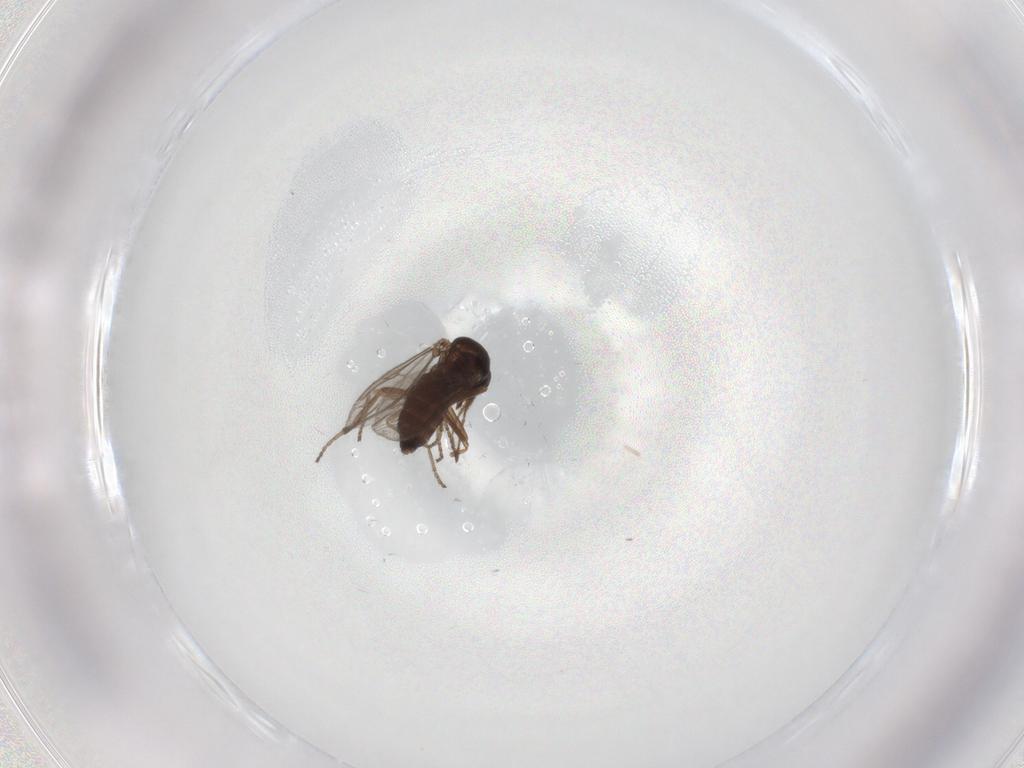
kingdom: Animalia
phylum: Arthropoda
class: Insecta
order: Diptera
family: Ceratopogonidae
